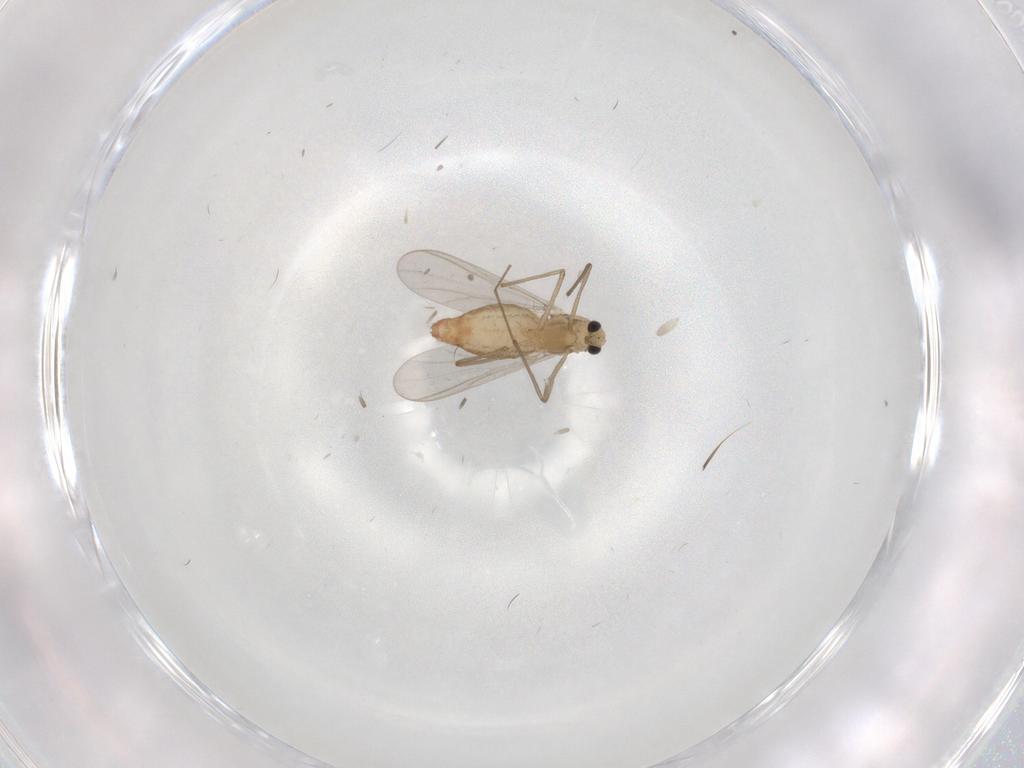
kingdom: Animalia
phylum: Arthropoda
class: Insecta
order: Diptera
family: Chironomidae
